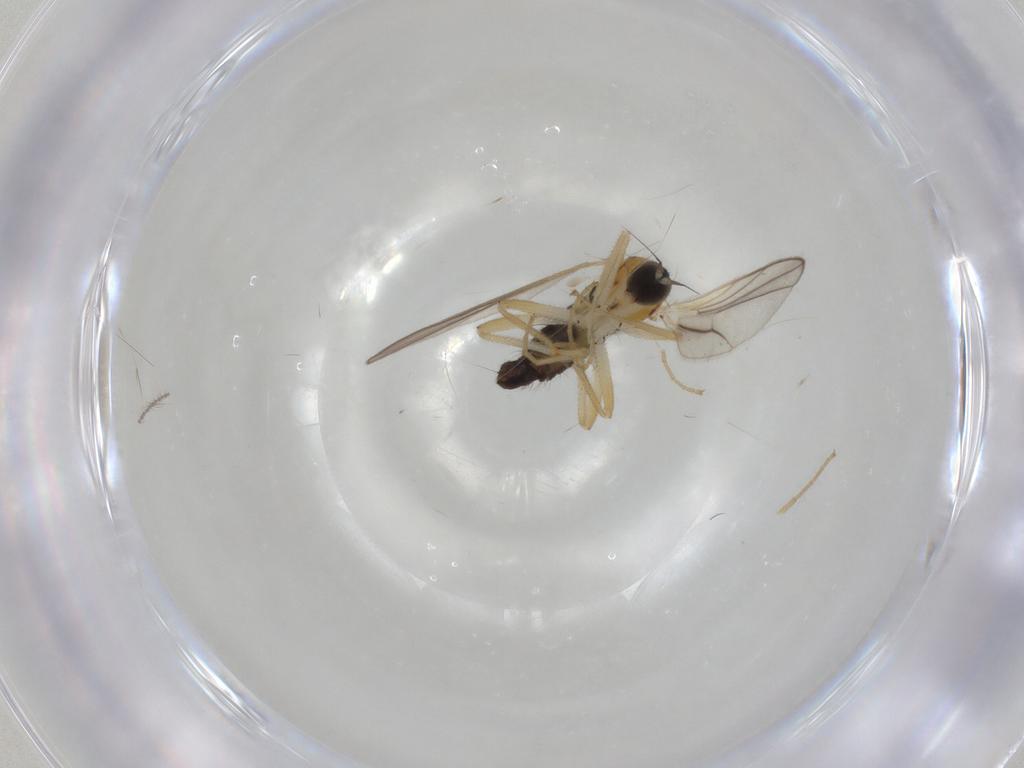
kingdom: Animalia
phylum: Arthropoda
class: Insecta
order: Diptera
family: Hybotidae
